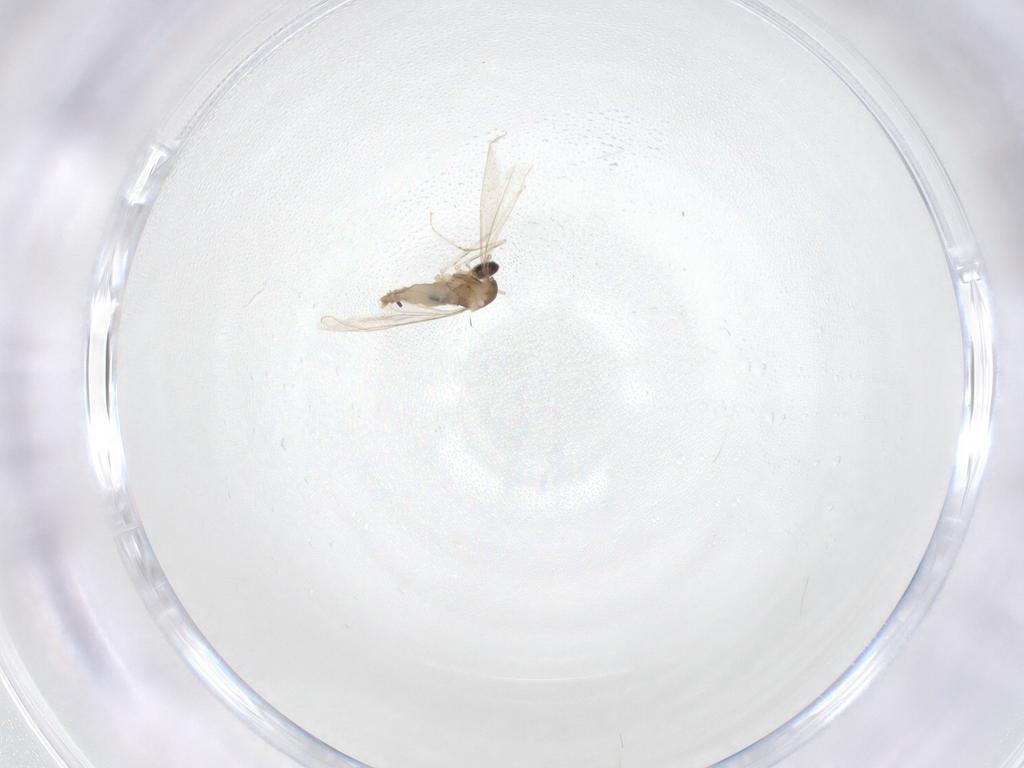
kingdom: Animalia
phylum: Arthropoda
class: Insecta
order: Diptera
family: Cecidomyiidae
